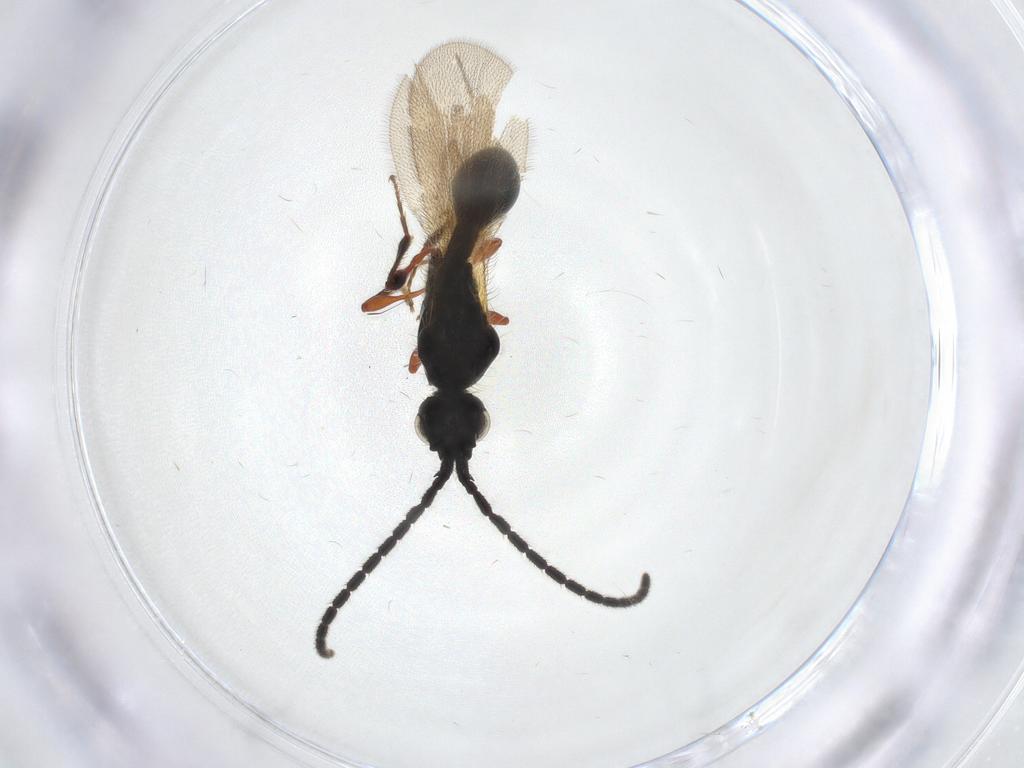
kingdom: Animalia
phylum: Arthropoda
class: Insecta
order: Hymenoptera
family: Diapriidae
